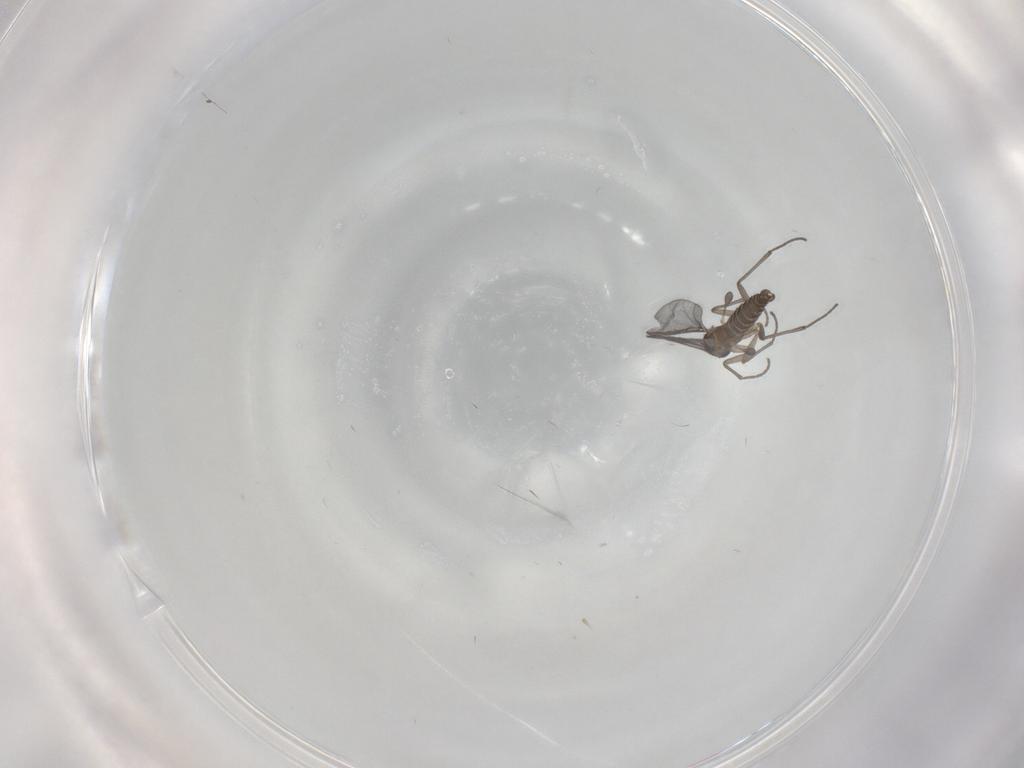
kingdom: Animalia
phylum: Arthropoda
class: Insecta
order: Diptera
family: Sciaridae
